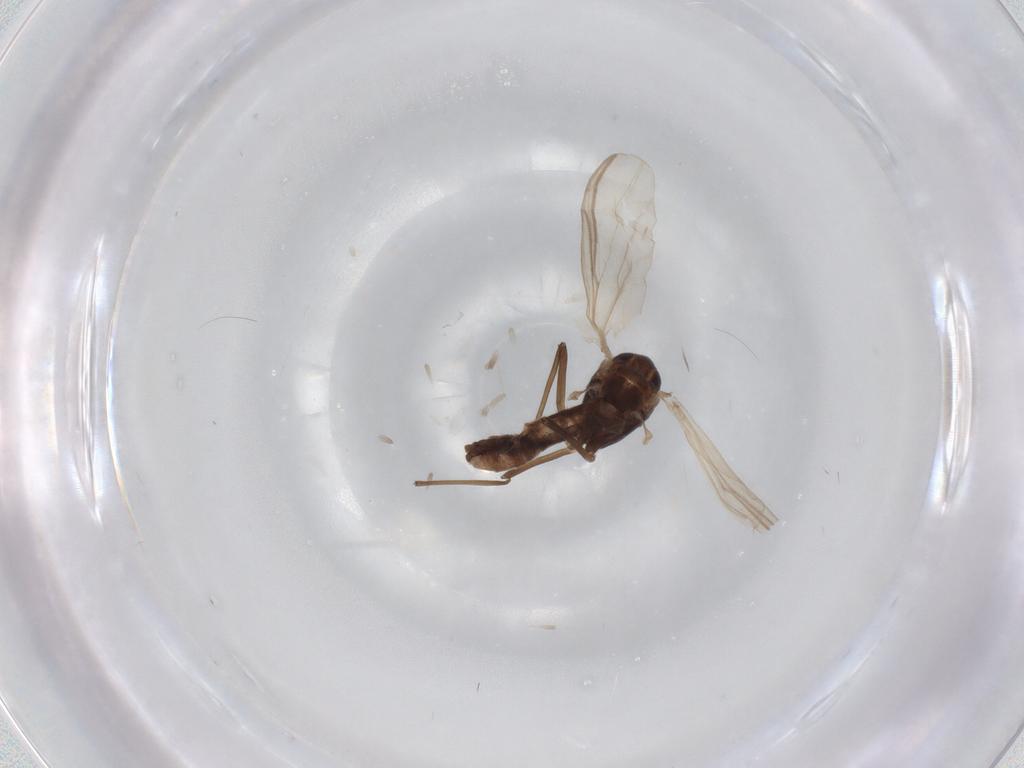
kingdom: Animalia
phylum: Arthropoda
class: Insecta
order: Diptera
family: Chironomidae
